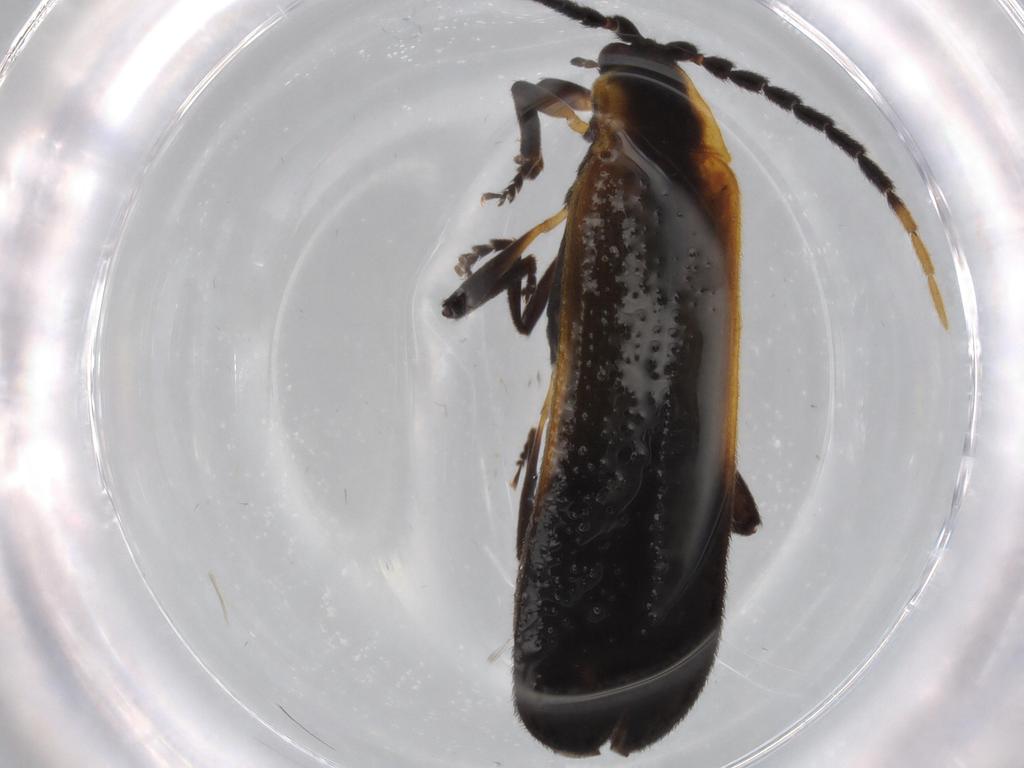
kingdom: Animalia
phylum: Arthropoda
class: Insecta
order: Coleoptera
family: Lycidae
